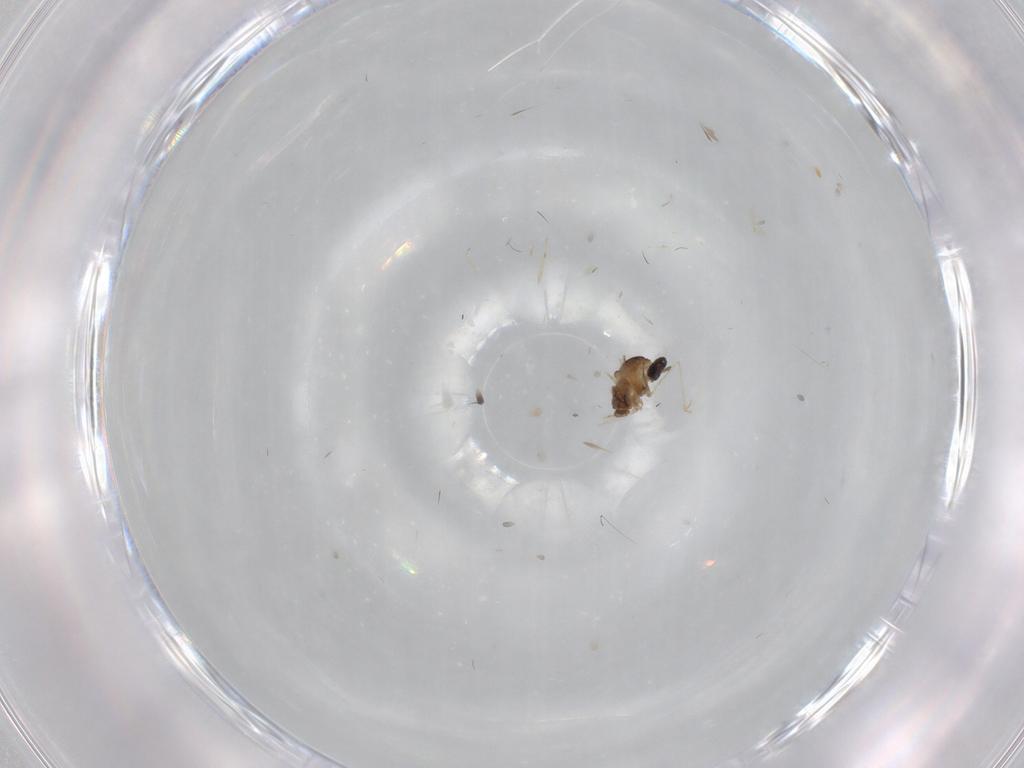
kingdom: Animalia
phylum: Arthropoda
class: Insecta
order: Diptera
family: Cecidomyiidae
